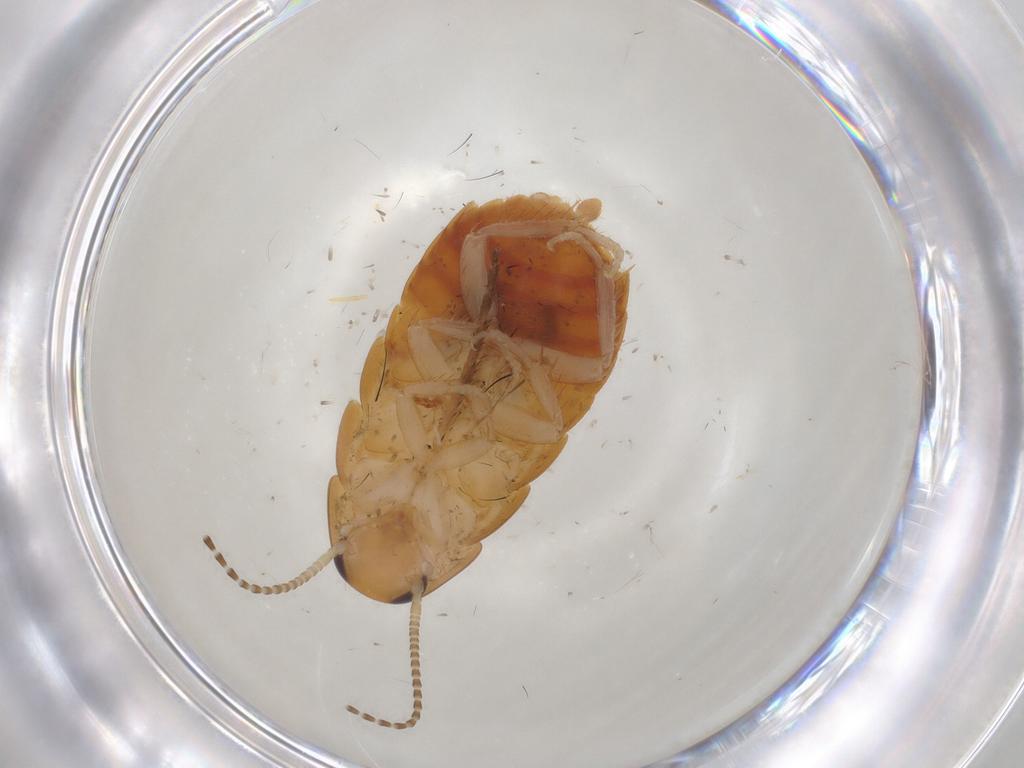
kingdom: Animalia
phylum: Arthropoda
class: Insecta
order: Blattodea
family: Blaberidae
